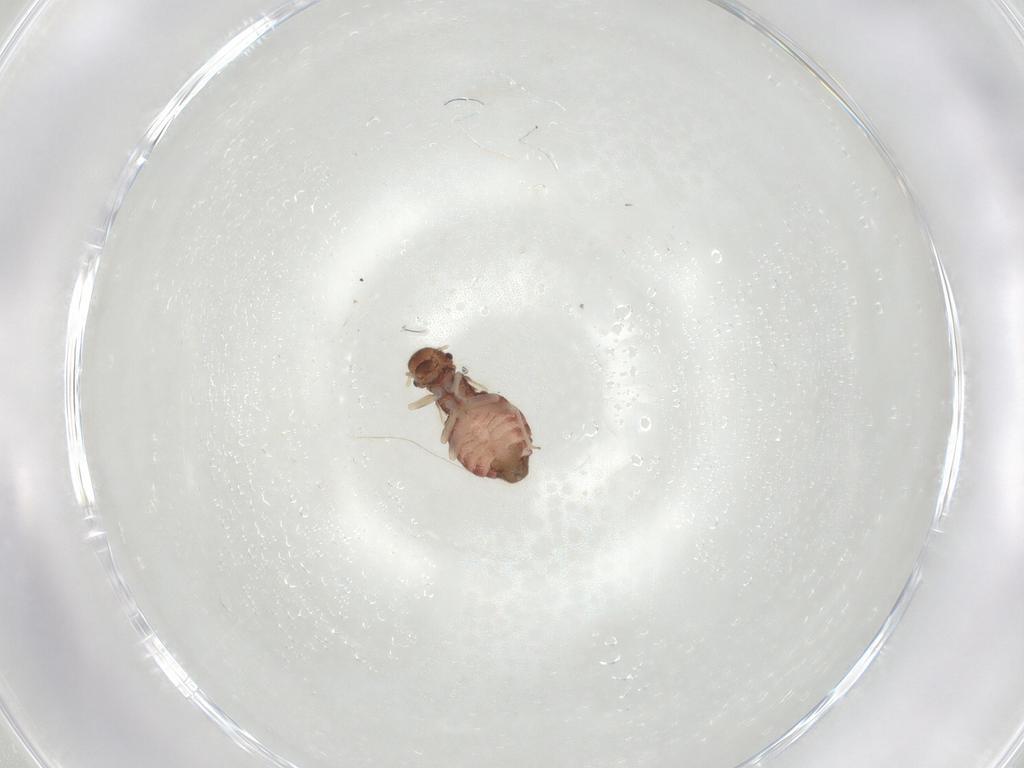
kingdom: Animalia
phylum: Arthropoda
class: Insecta
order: Psocodea
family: Archipsocidae
